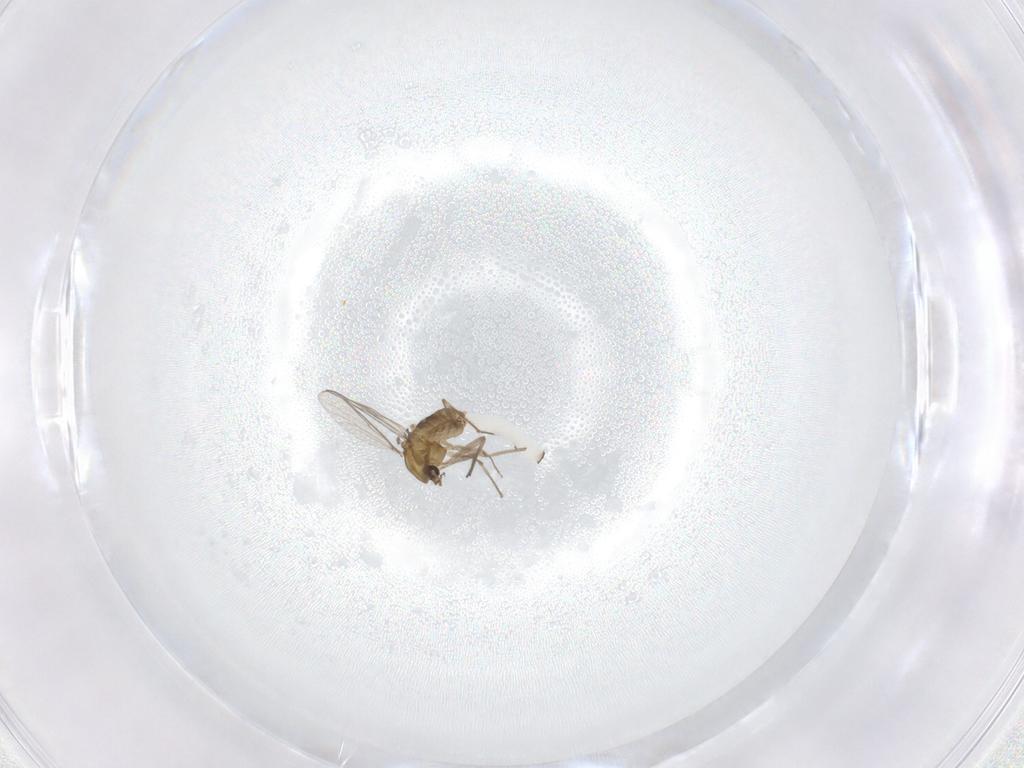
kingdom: Animalia
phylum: Arthropoda
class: Insecta
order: Diptera
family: Chironomidae
